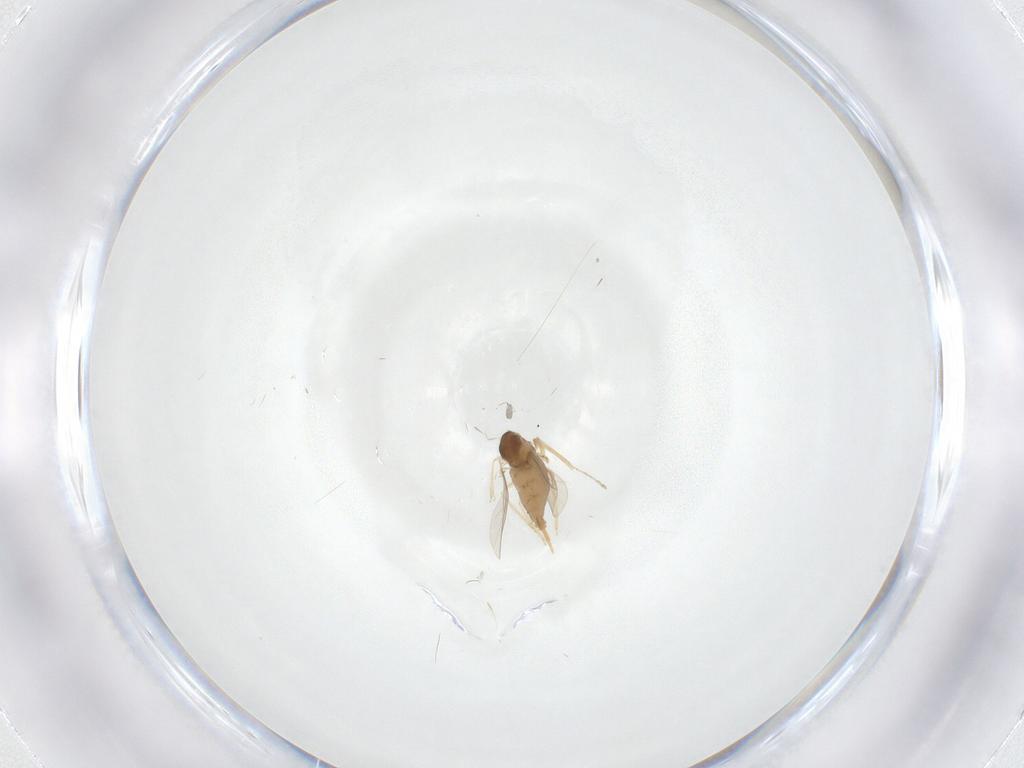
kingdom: Animalia
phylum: Arthropoda
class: Insecta
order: Diptera
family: Cecidomyiidae
